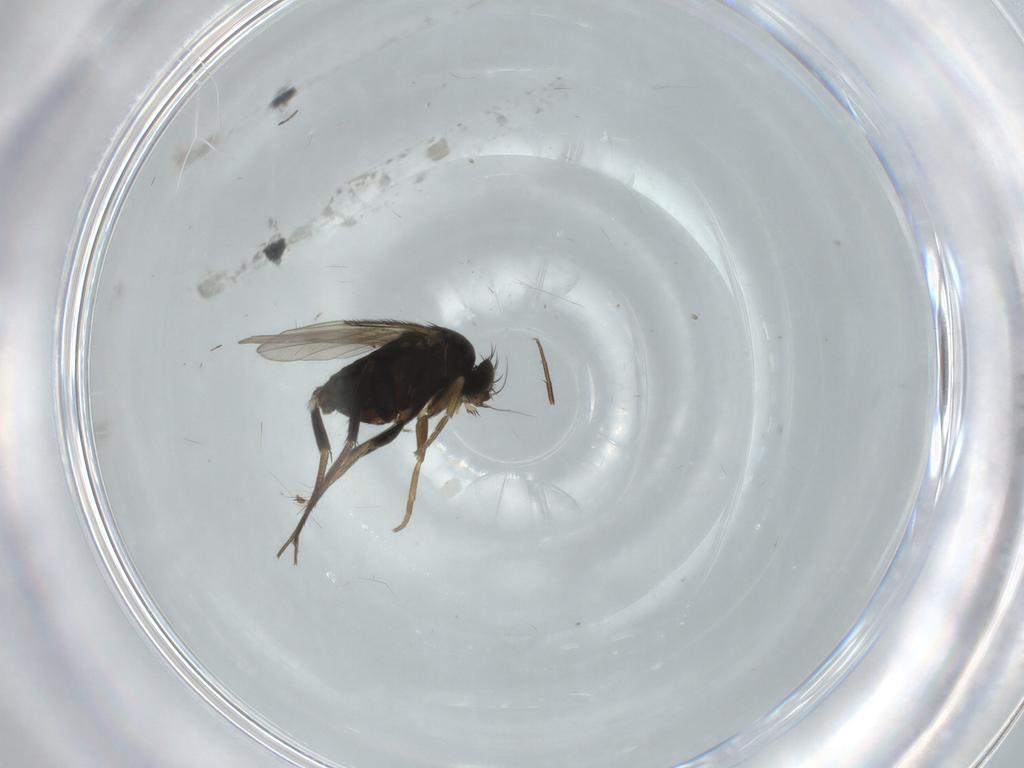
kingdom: Animalia
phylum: Arthropoda
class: Insecta
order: Diptera
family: Phoridae
